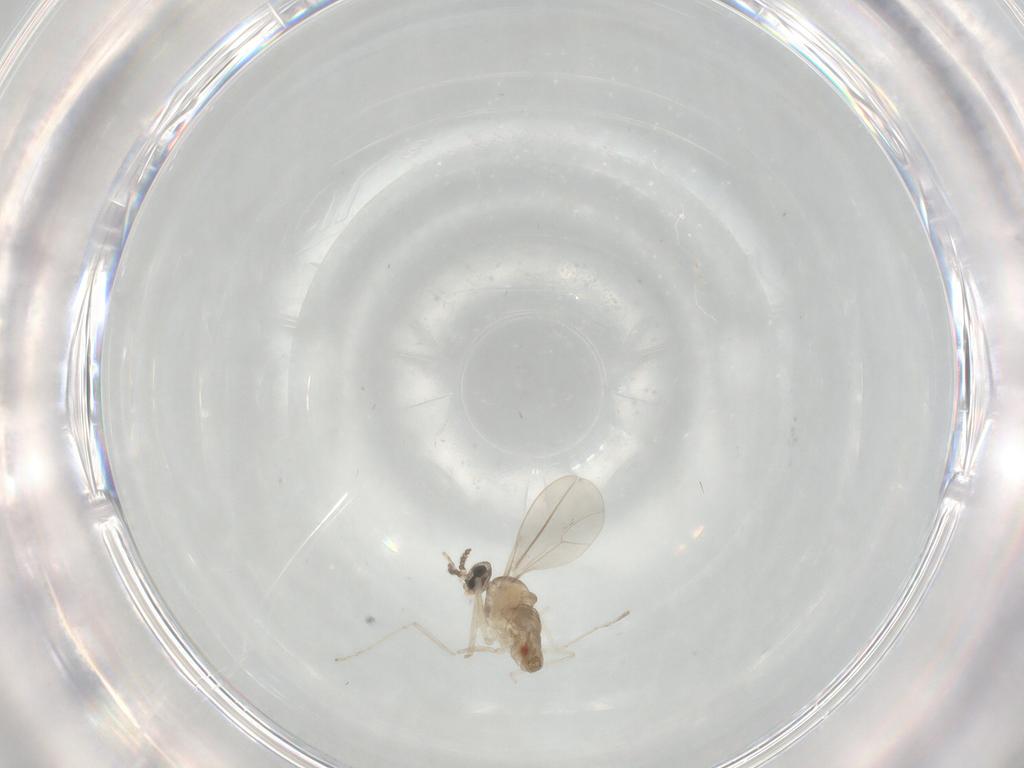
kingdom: Animalia
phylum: Arthropoda
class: Insecta
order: Diptera
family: Cecidomyiidae
